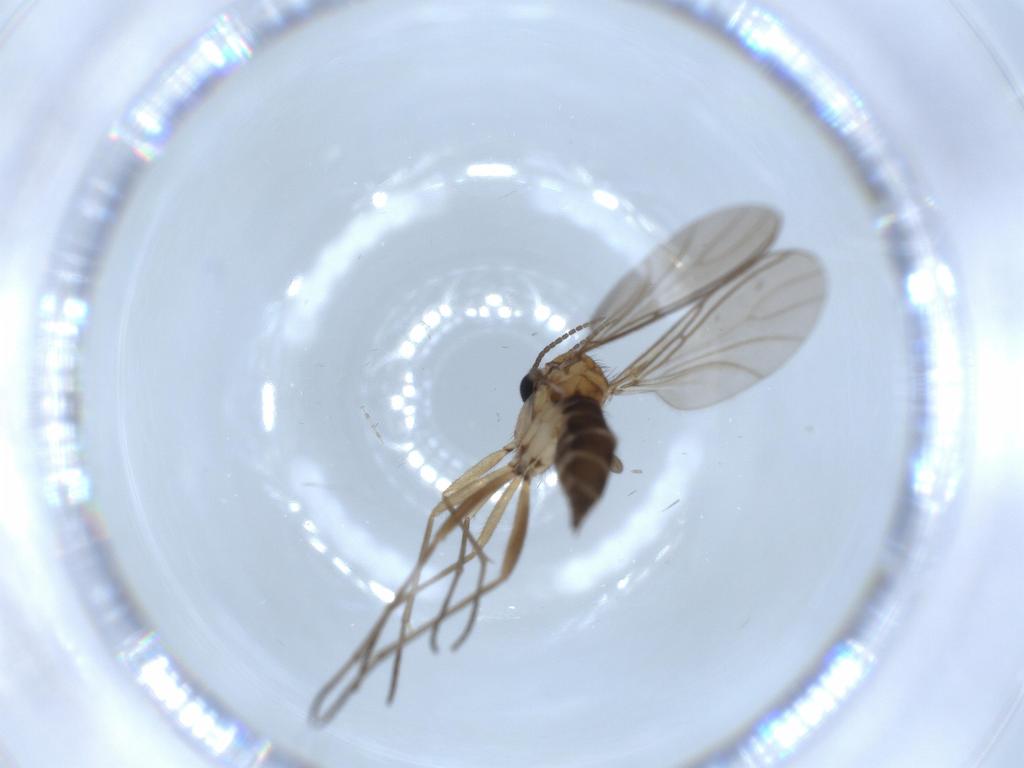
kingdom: Animalia
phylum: Arthropoda
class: Insecta
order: Diptera
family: Sciaridae
